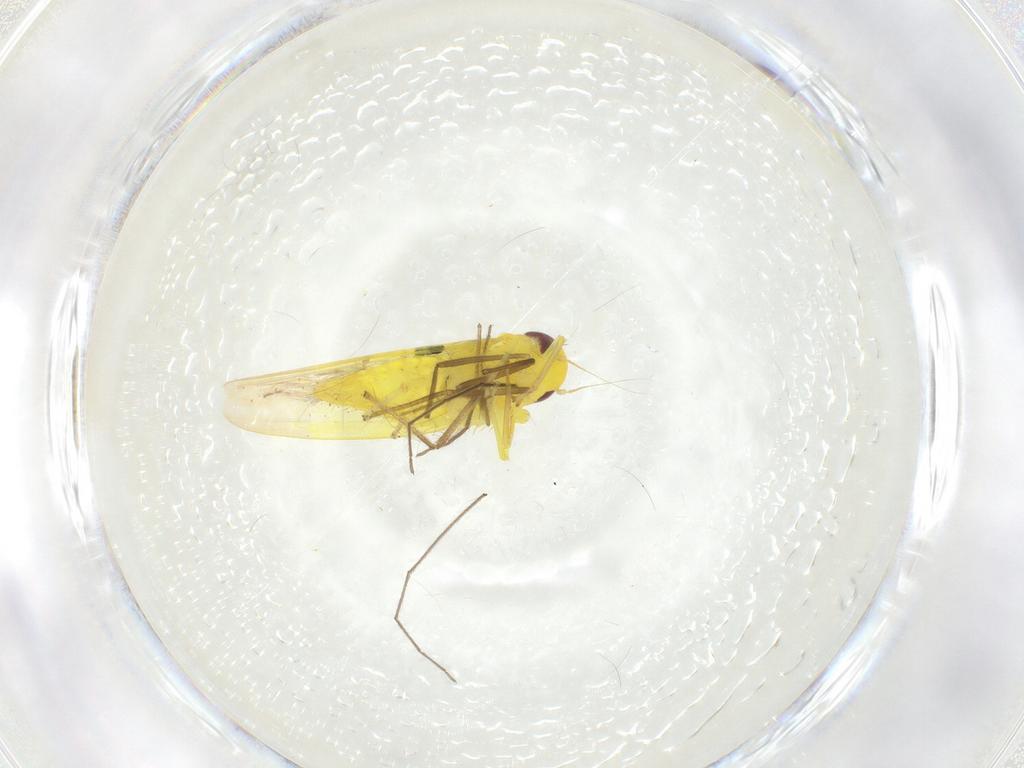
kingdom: Animalia
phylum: Arthropoda
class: Insecta
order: Hemiptera
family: Cicadellidae
